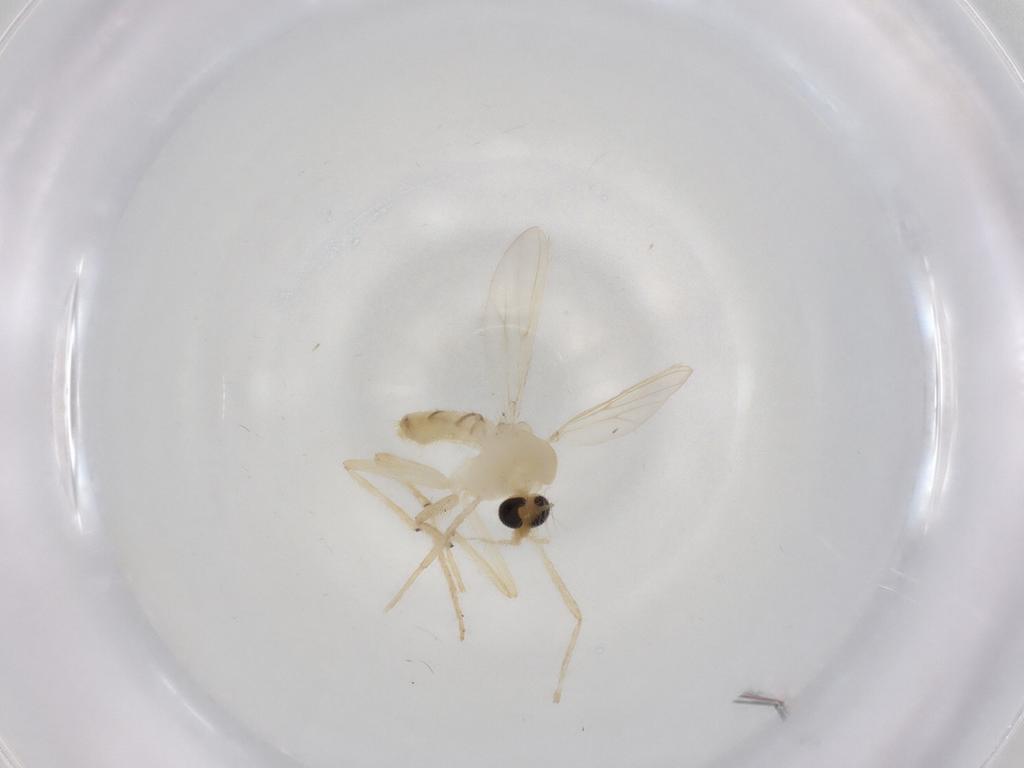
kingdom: Animalia
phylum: Arthropoda
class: Insecta
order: Diptera
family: Chironomidae
